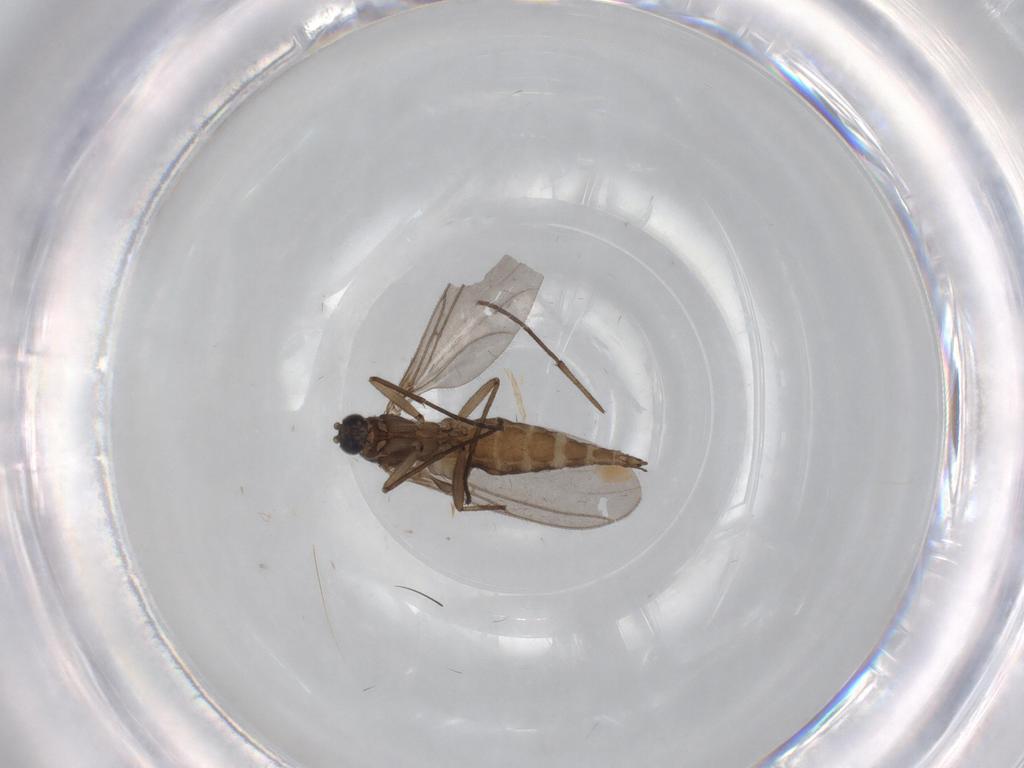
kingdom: Animalia
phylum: Arthropoda
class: Insecta
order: Diptera
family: Sciaridae
